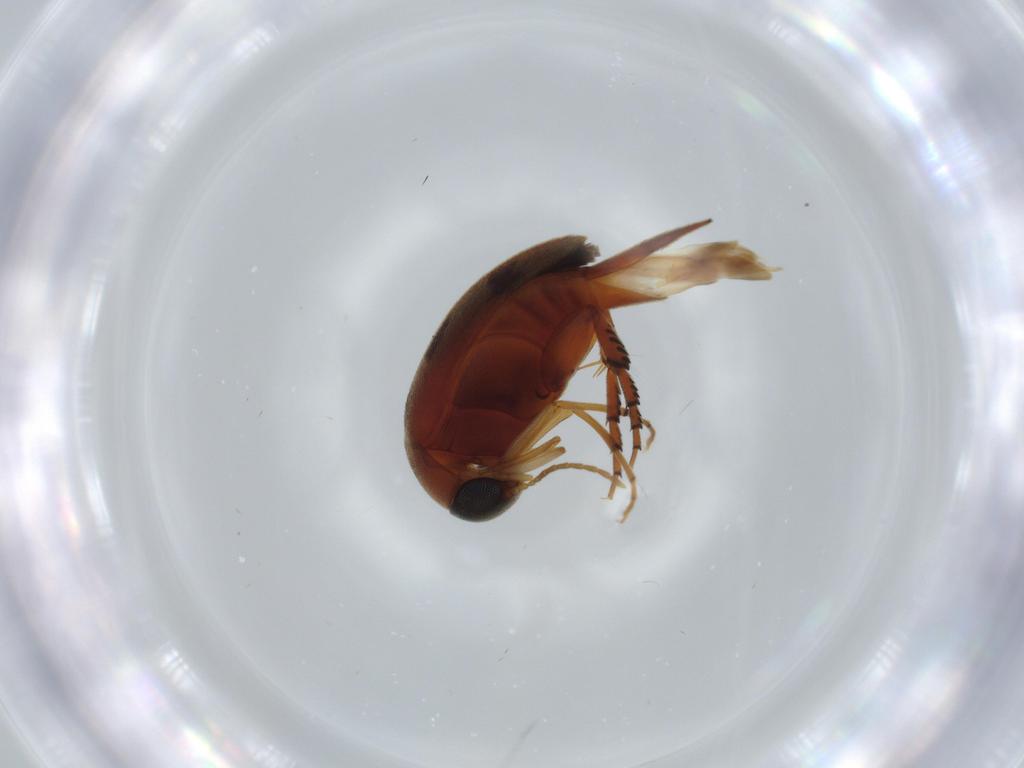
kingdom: Animalia
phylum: Arthropoda
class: Insecta
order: Coleoptera
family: Mordellidae
